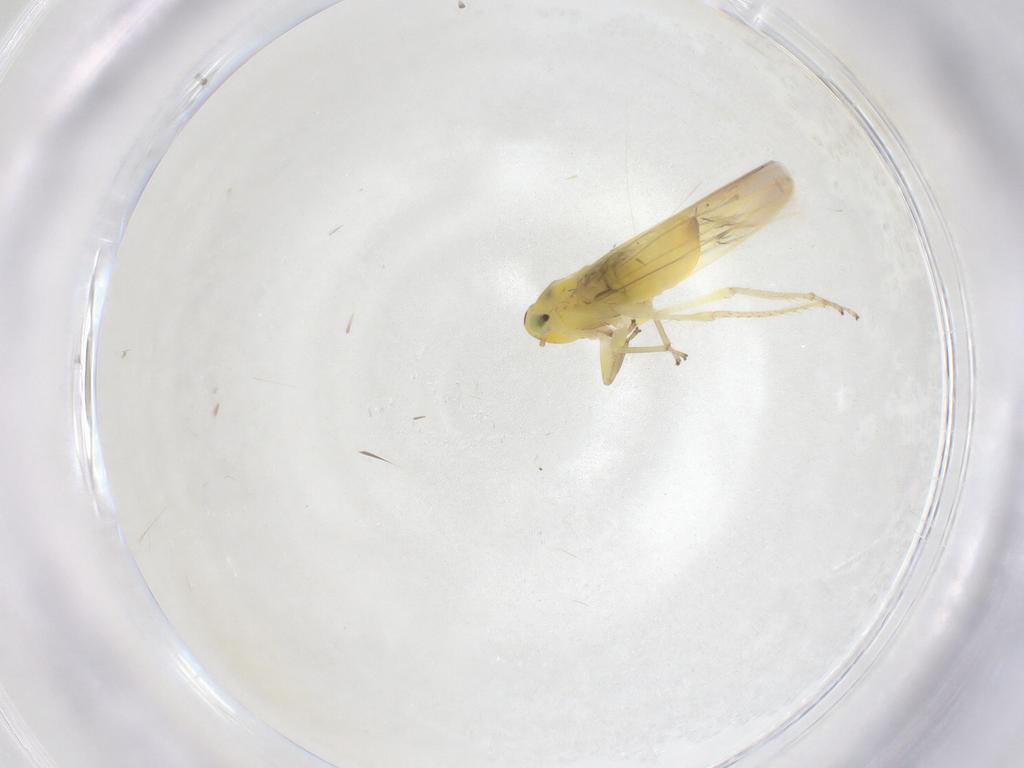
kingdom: Animalia
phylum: Arthropoda
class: Insecta
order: Hemiptera
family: Cicadellidae
